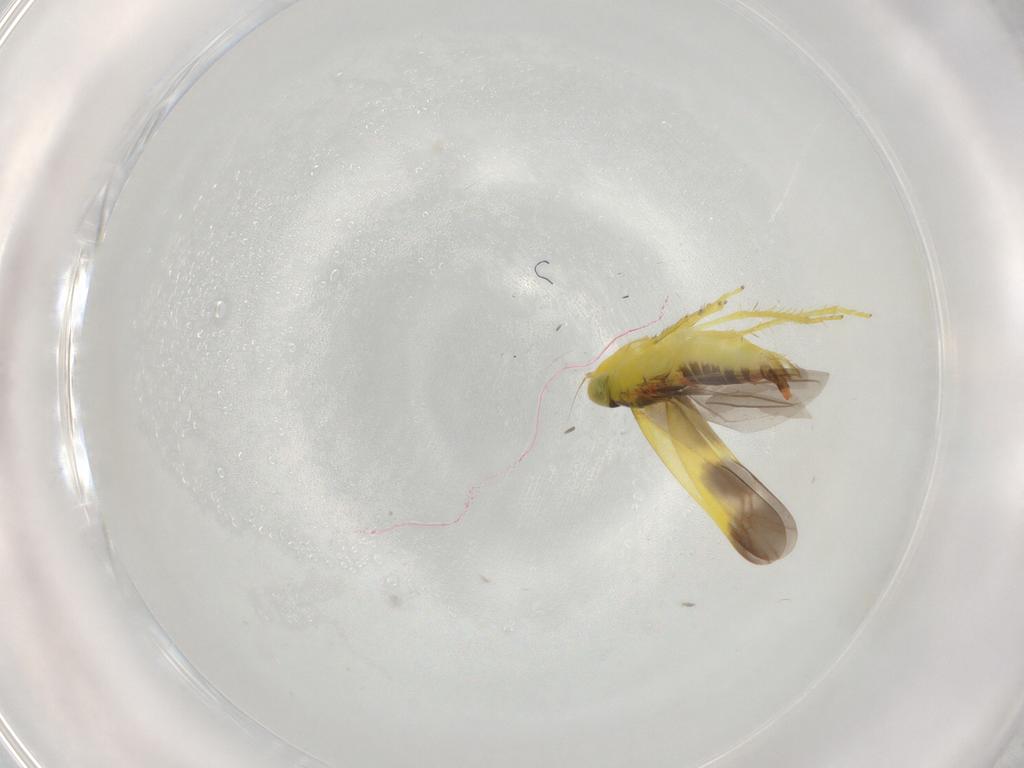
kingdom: Animalia
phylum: Arthropoda
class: Insecta
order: Hemiptera
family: Cicadellidae
